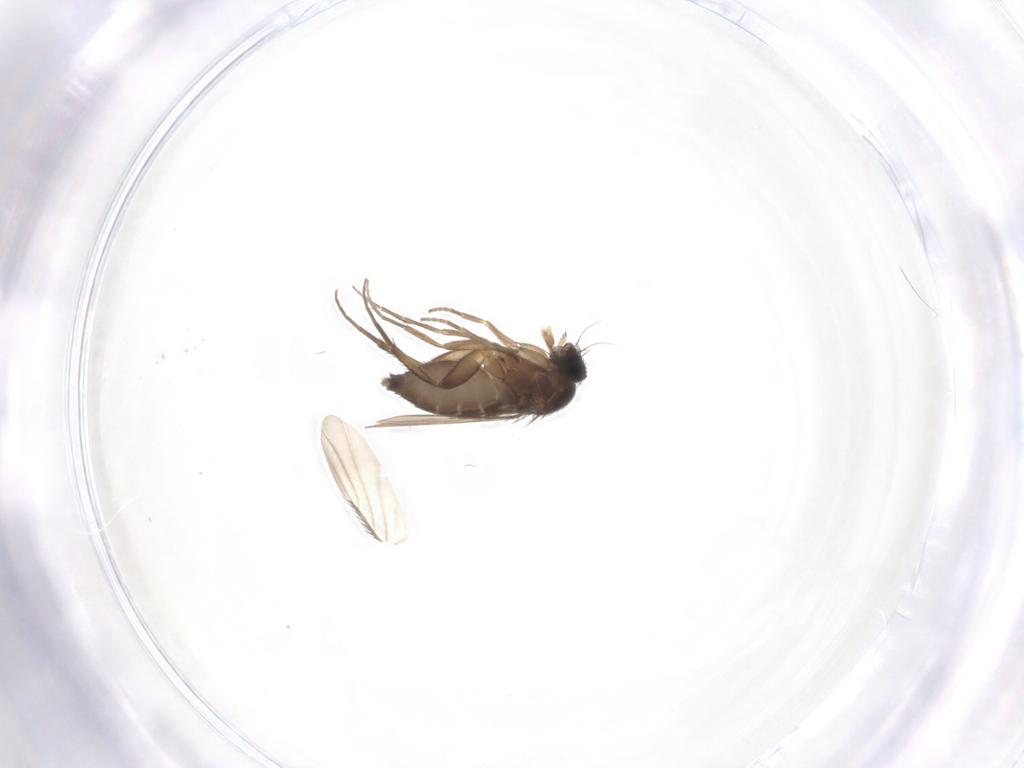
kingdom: Animalia
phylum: Arthropoda
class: Insecta
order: Diptera
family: Phoridae
